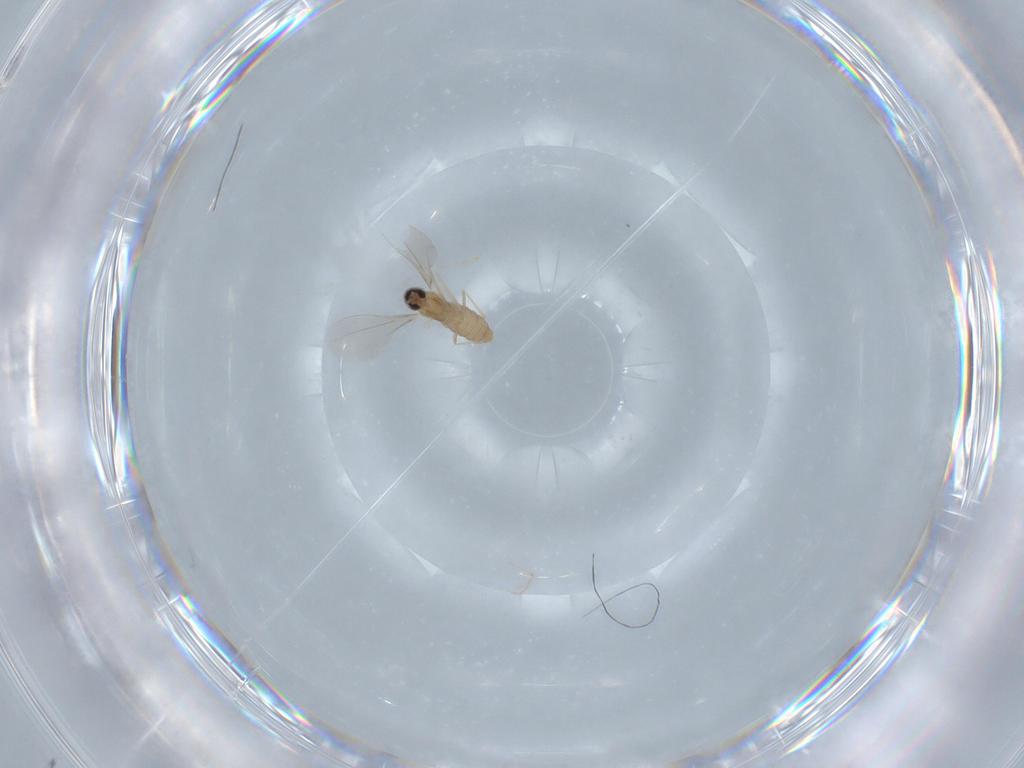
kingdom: Animalia
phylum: Arthropoda
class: Insecta
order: Diptera
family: Cecidomyiidae
